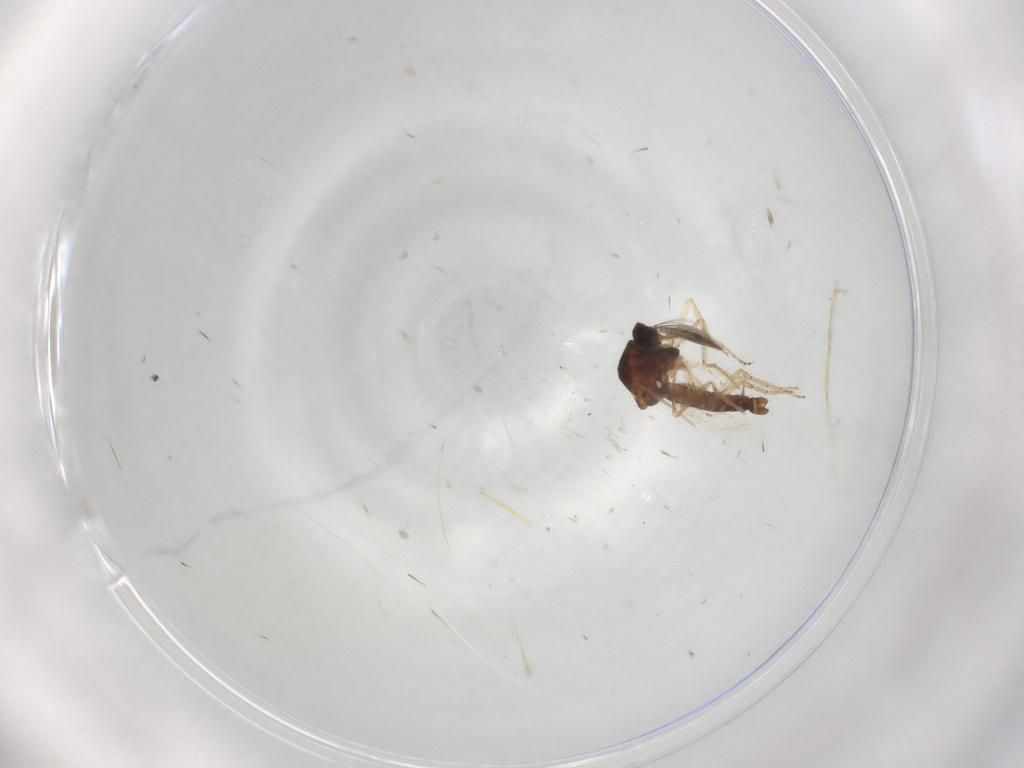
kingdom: Animalia
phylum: Arthropoda
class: Insecta
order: Diptera
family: Ceratopogonidae
